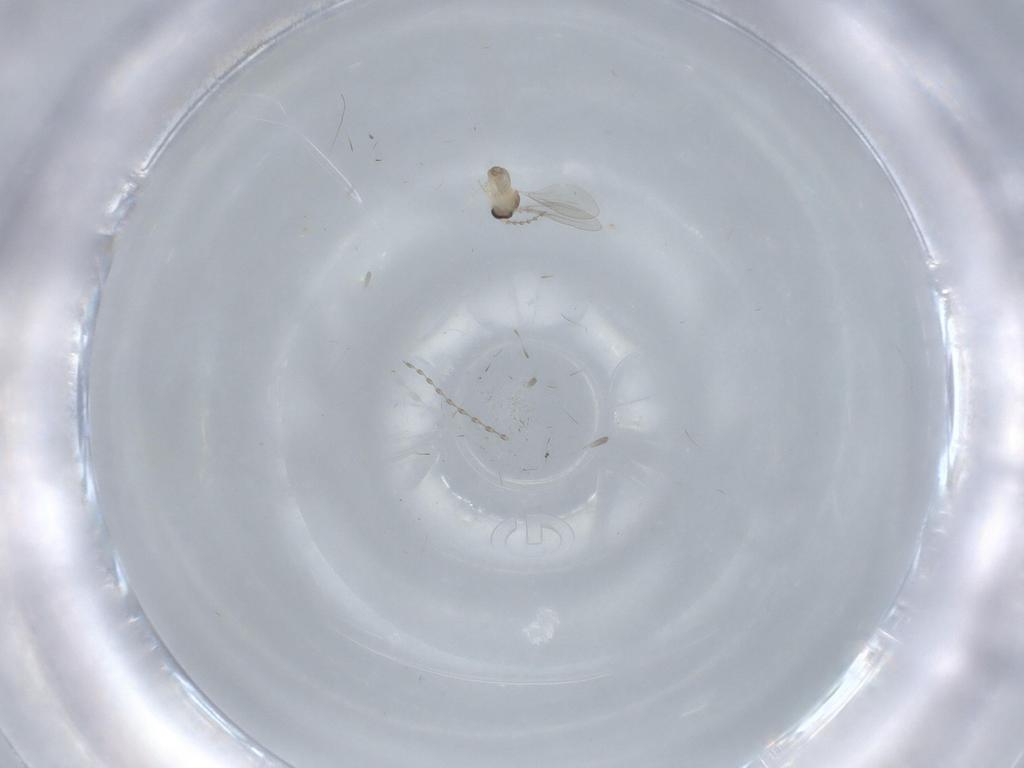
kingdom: Animalia
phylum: Arthropoda
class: Insecta
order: Diptera
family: Cecidomyiidae
